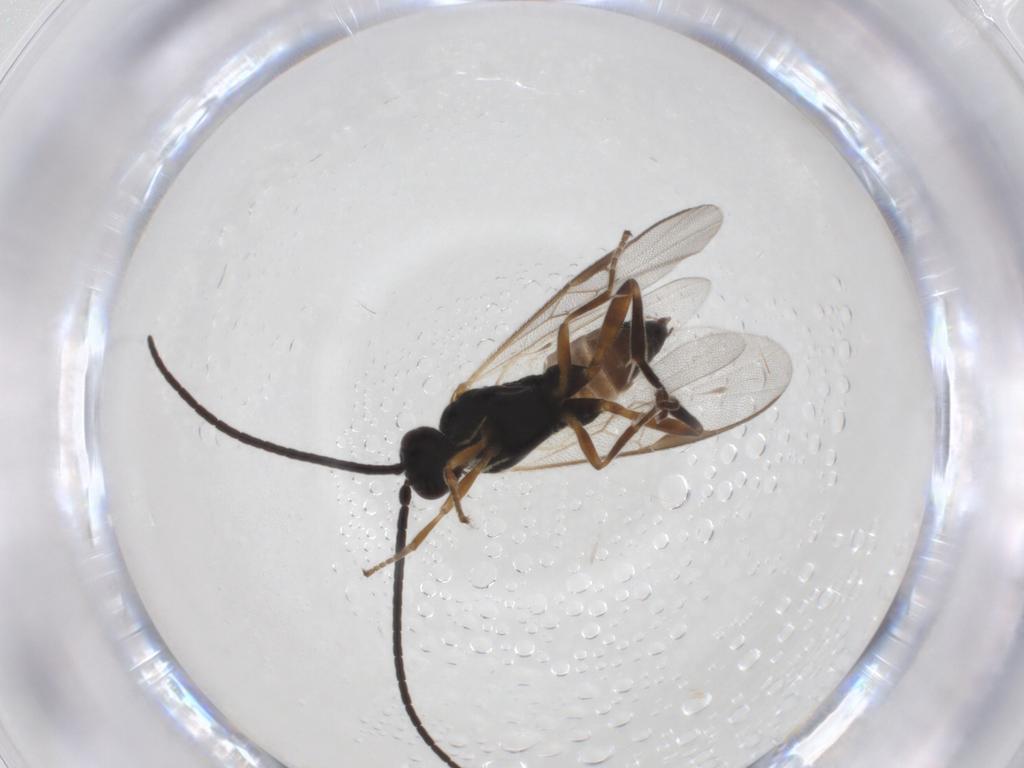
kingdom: Animalia
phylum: Arthropoda
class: Insecta
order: Hymenoptera
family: Braconidae
